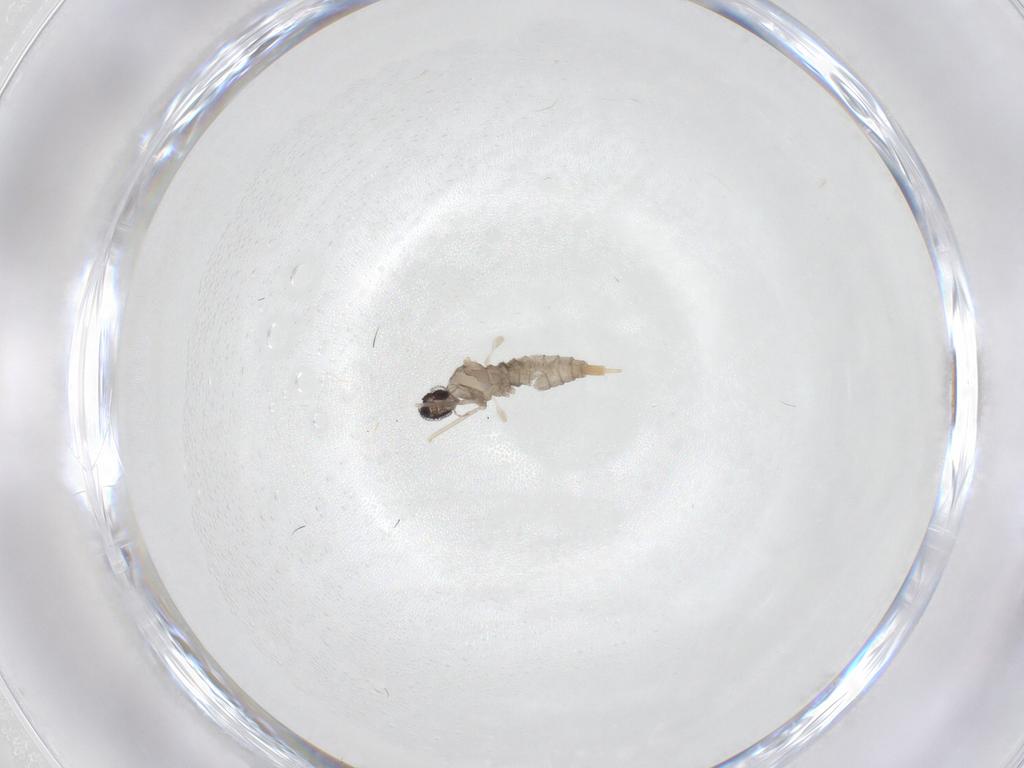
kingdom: Animalia
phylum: Arthropoda
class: Insecta
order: Diptera
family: Cecidomyiidae
